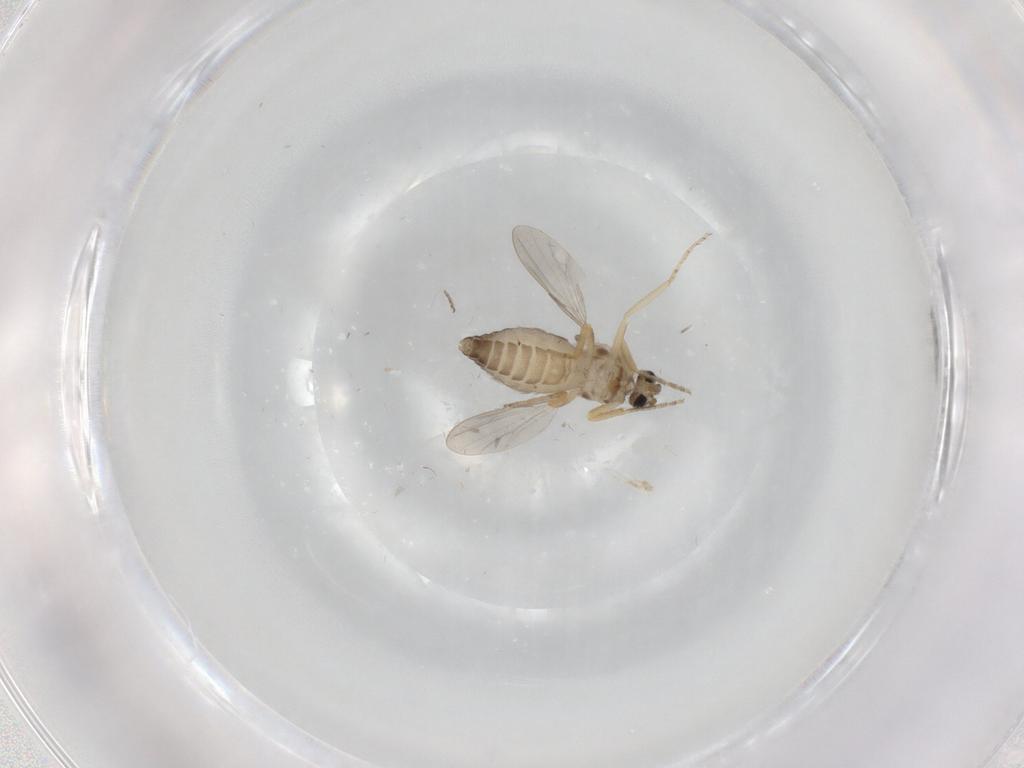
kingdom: Animalia
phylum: Arthropoda
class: Insecta
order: Diptera
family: Ceratopogonidae
